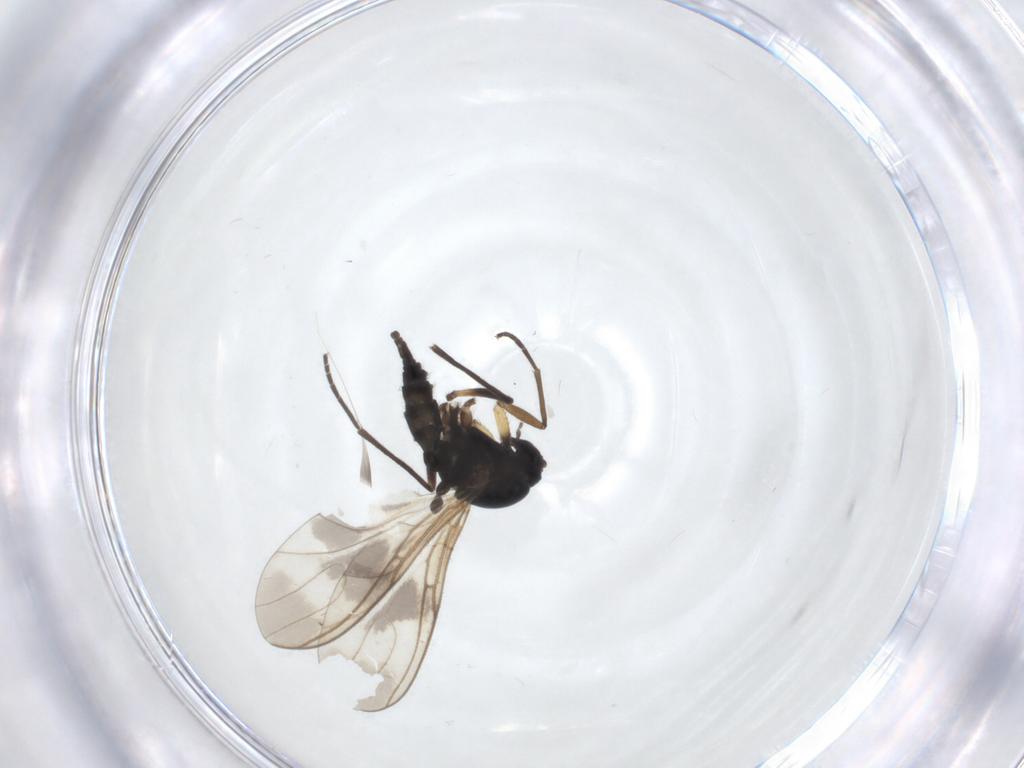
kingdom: Animalia
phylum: Arthropoda
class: Insecta
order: Diptera
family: Sciaridae
